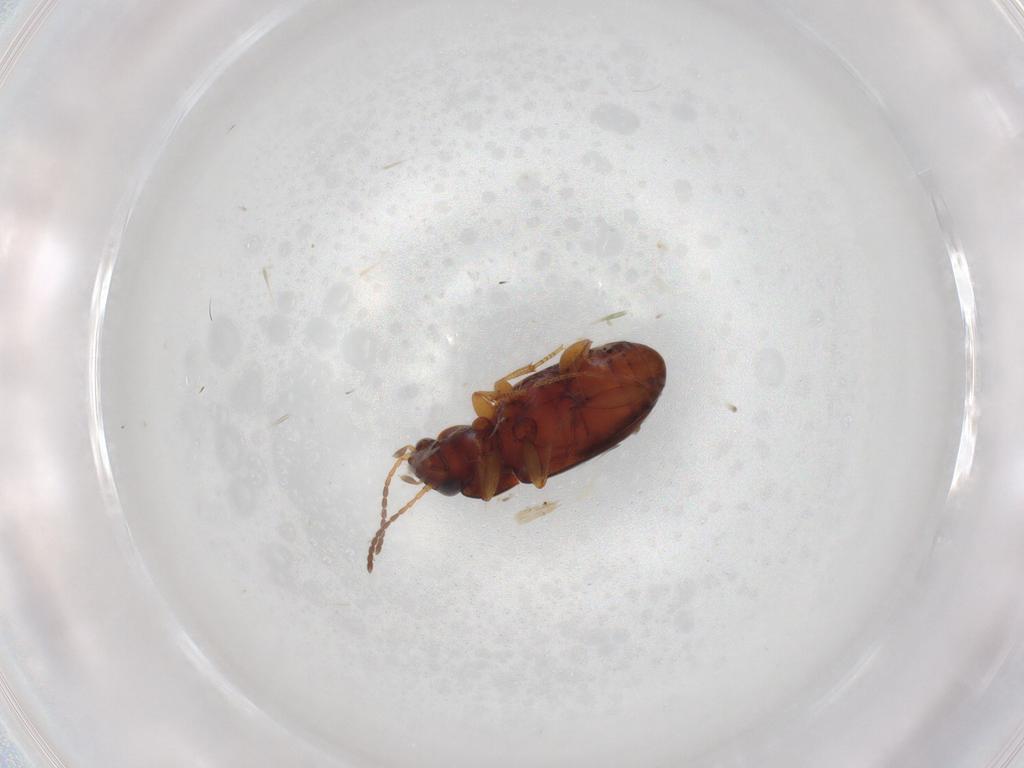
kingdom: Animalia
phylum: Arthropoda
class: Insecta
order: Coleoptera
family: Carabidae
